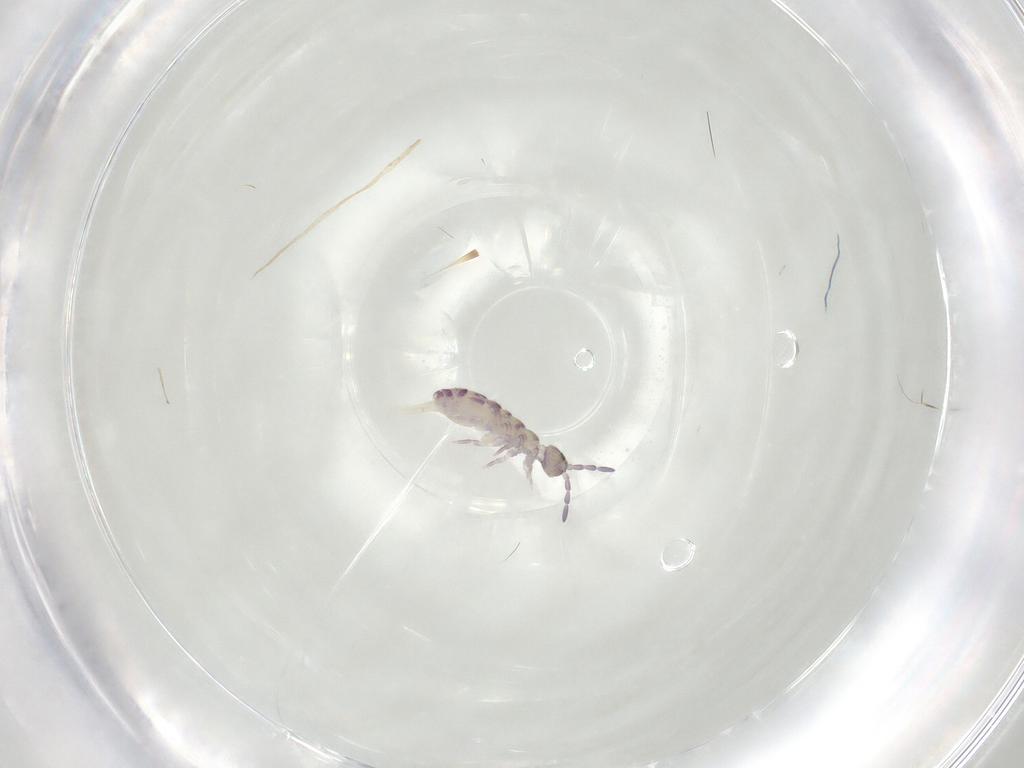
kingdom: Animalia
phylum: Arthropoda
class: Collembola
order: Entomobryomorpha
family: Isotomidae
